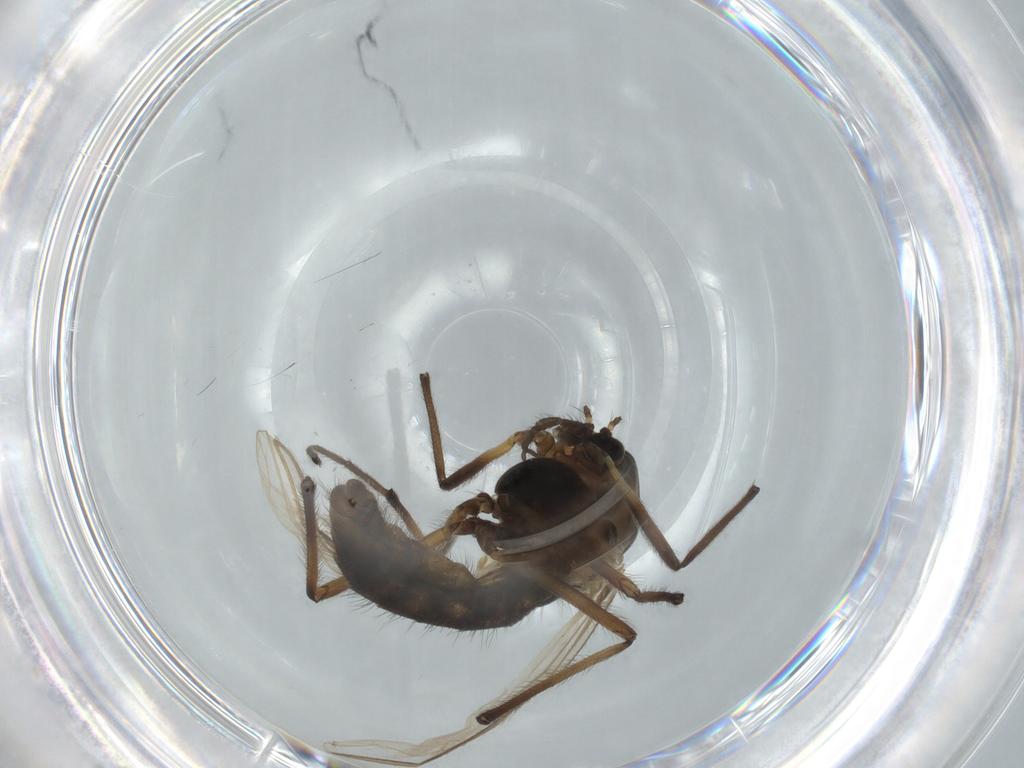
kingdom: Animalia
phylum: Arthropoda
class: Insecta
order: Diptera
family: Chironomidae
